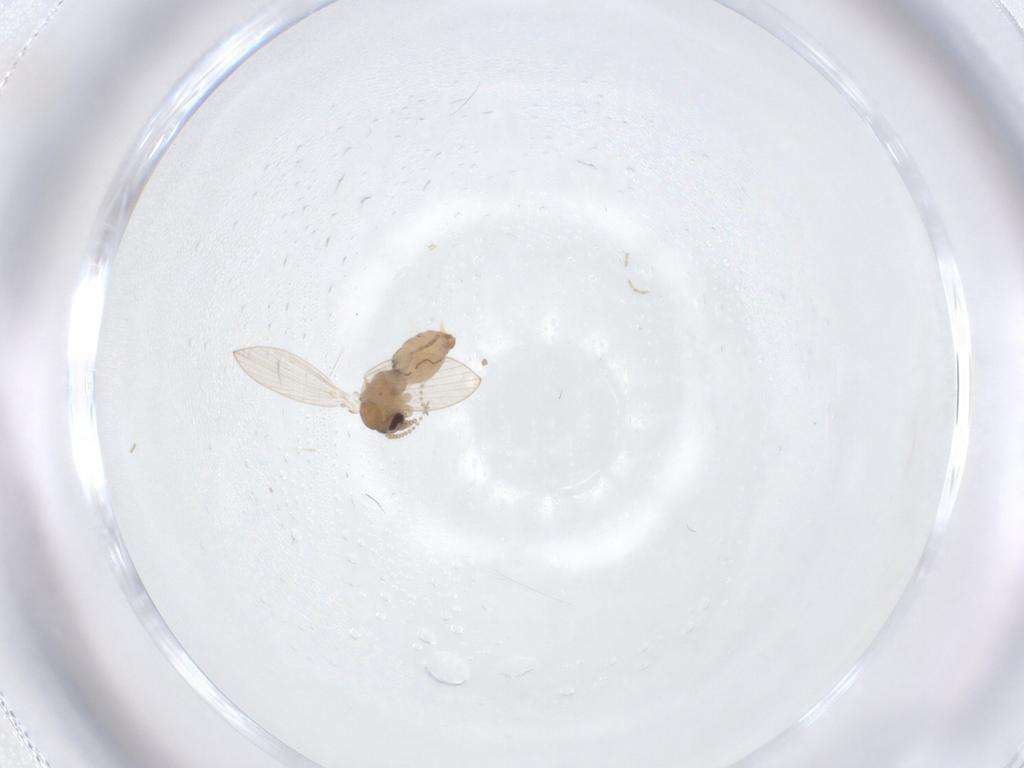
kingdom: Animalia
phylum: Arthropoda
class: Insecta
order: Diptera
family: Psychodidae
